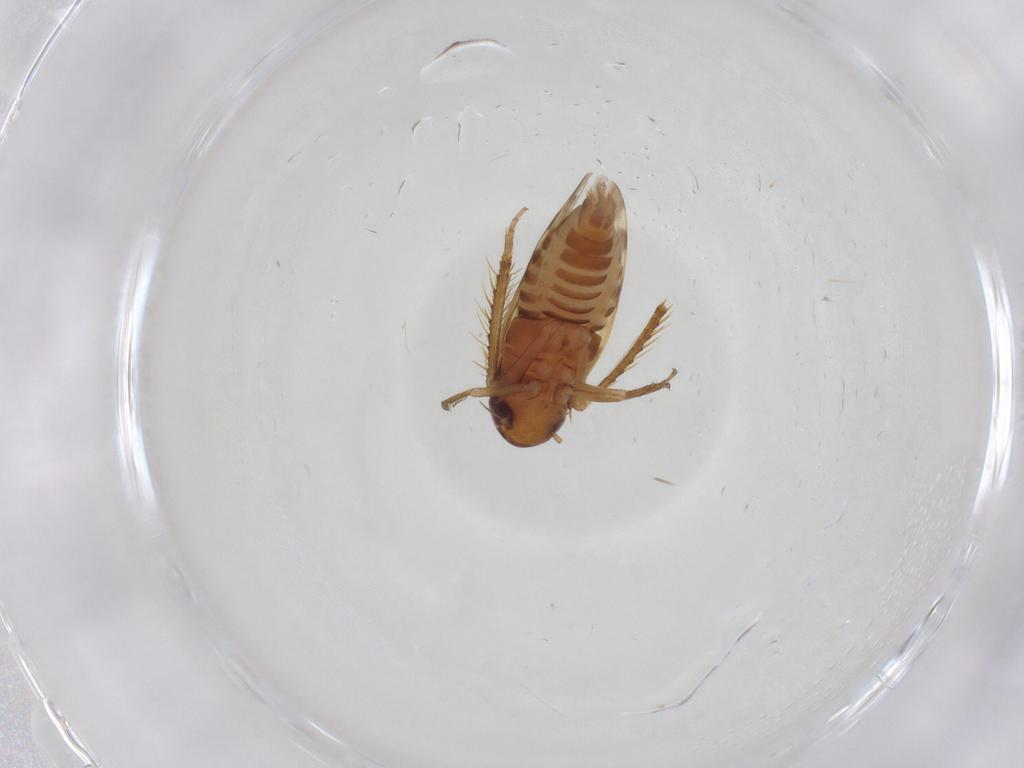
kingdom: Animalia
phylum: Arthropoda
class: Insecta
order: Hemiptera
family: Cicadellidae
